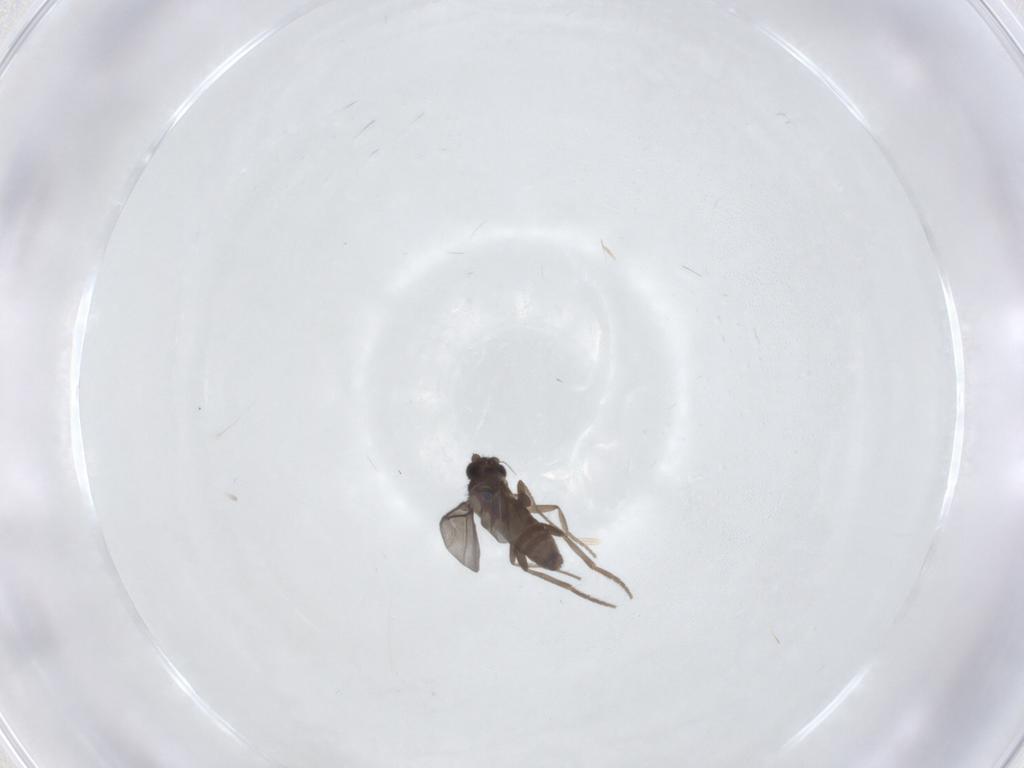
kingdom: Animalia
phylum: Arthropoda
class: Insecta
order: Diptera
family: Phoridae
